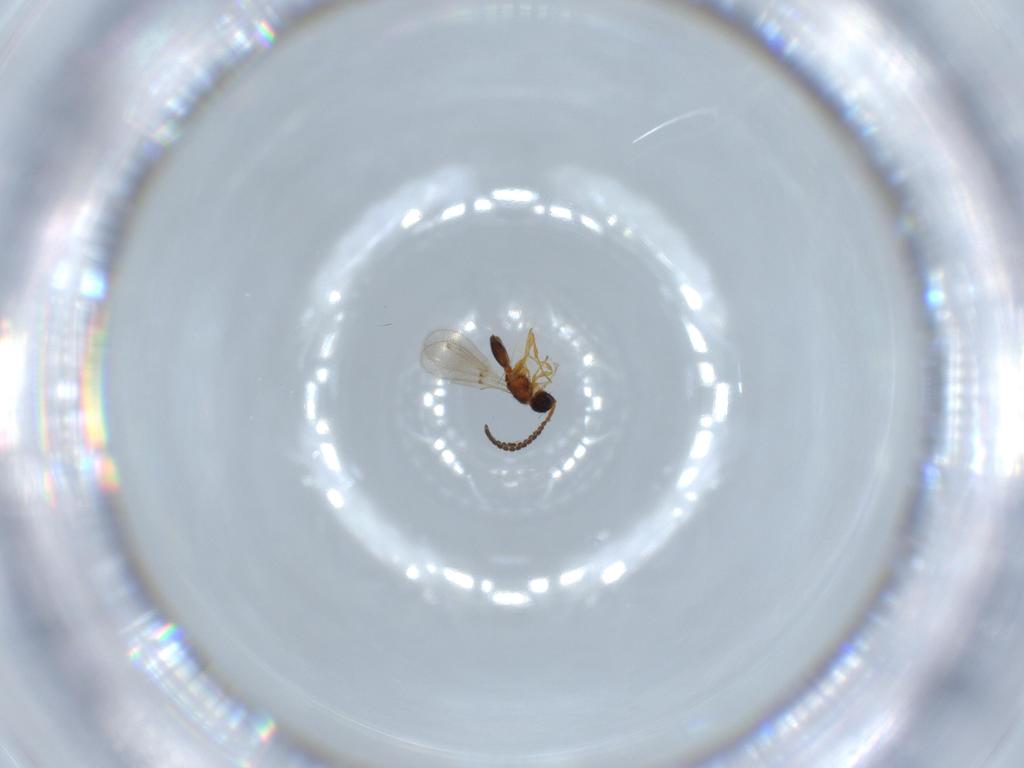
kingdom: Animalia
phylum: Arthropoda
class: Insecta
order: Hymenoptera
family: Diapriidae
